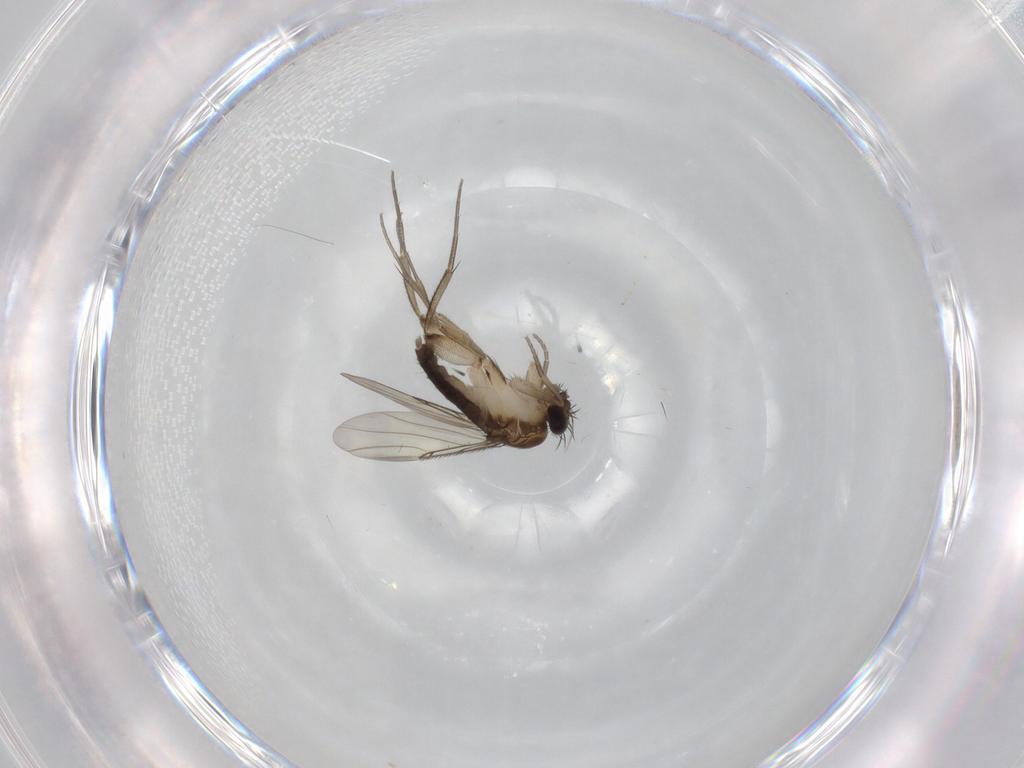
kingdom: Animalia
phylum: Arthropoda
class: Insecta
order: Diptera
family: Phoridae
